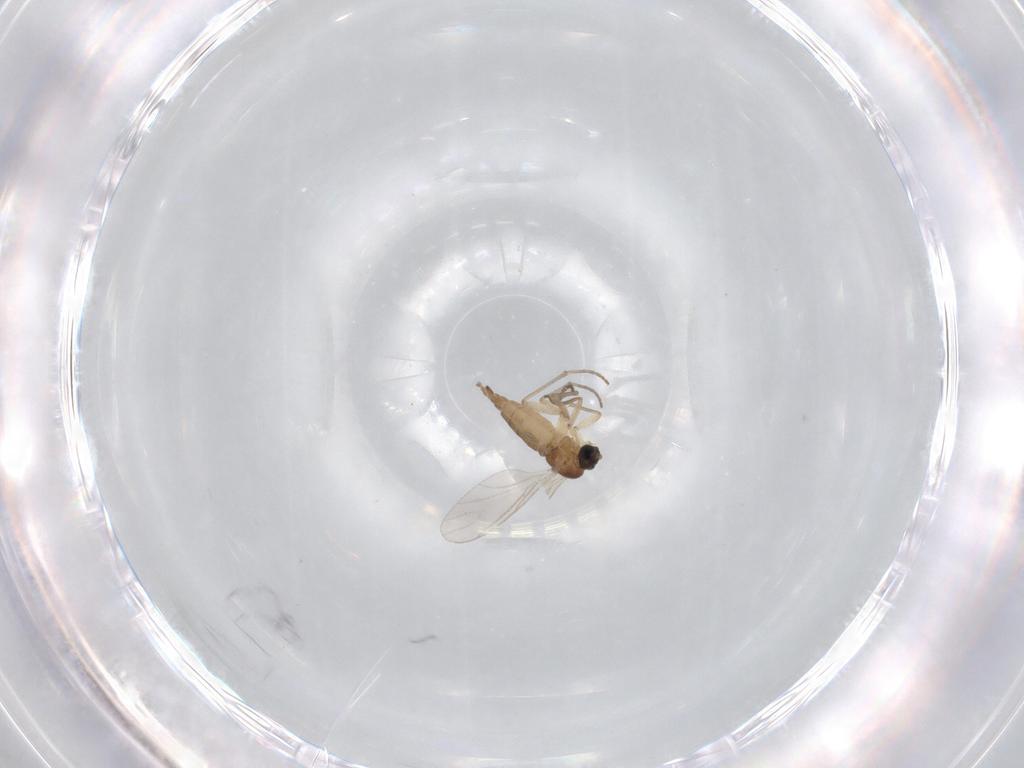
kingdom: Animalia
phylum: Arthropoda
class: Insecta
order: Diptera
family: Sciaridae
